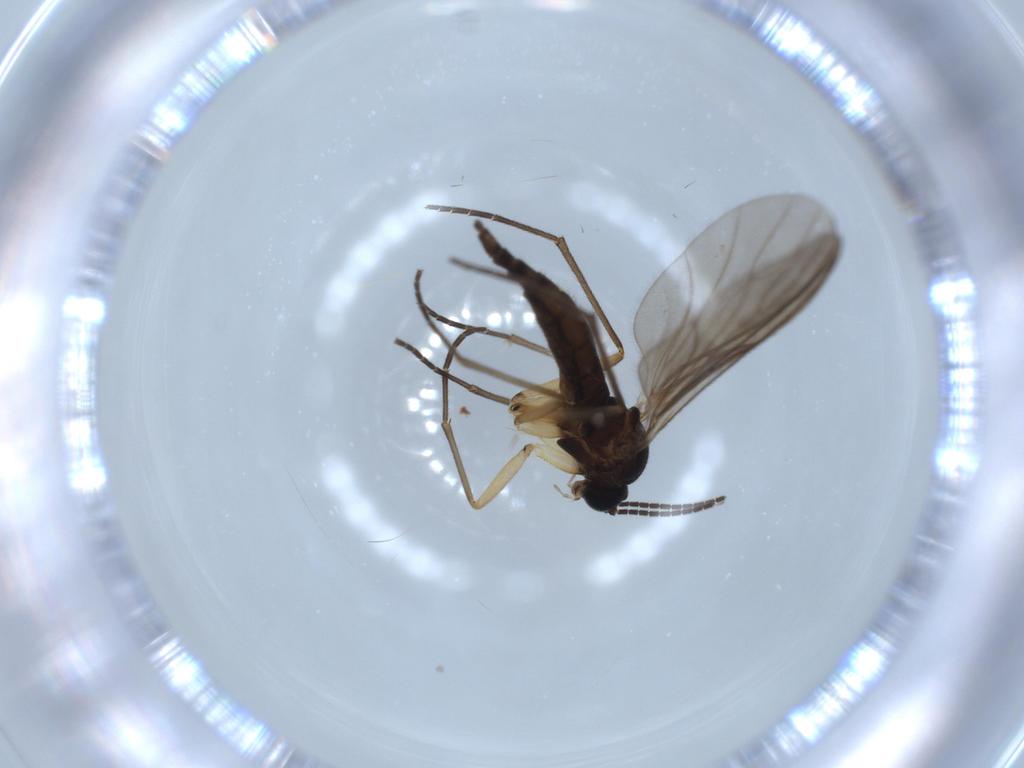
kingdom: Animalia
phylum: Arthropoda
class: Insecta
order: Diptera
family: Sciaridae
